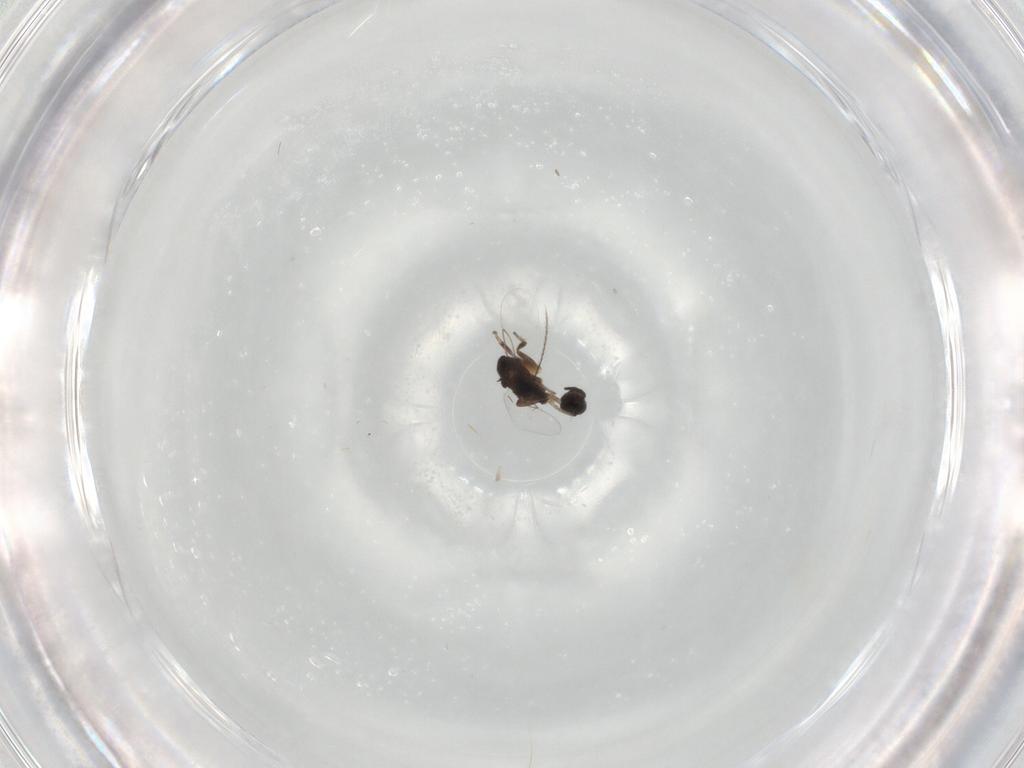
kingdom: Animalia
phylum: Arthropoda
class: Insecta
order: Diptera
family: Phoridae
